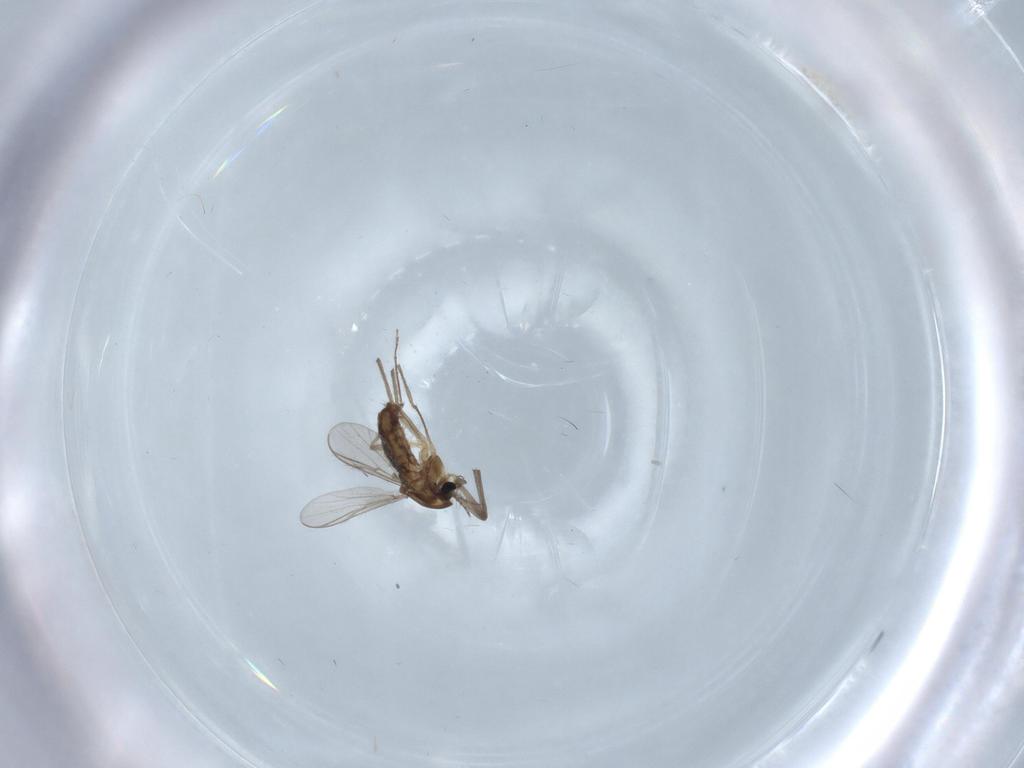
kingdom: Animalia
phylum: Arthropoda
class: Insecta
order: Diptera
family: Chironomidae
